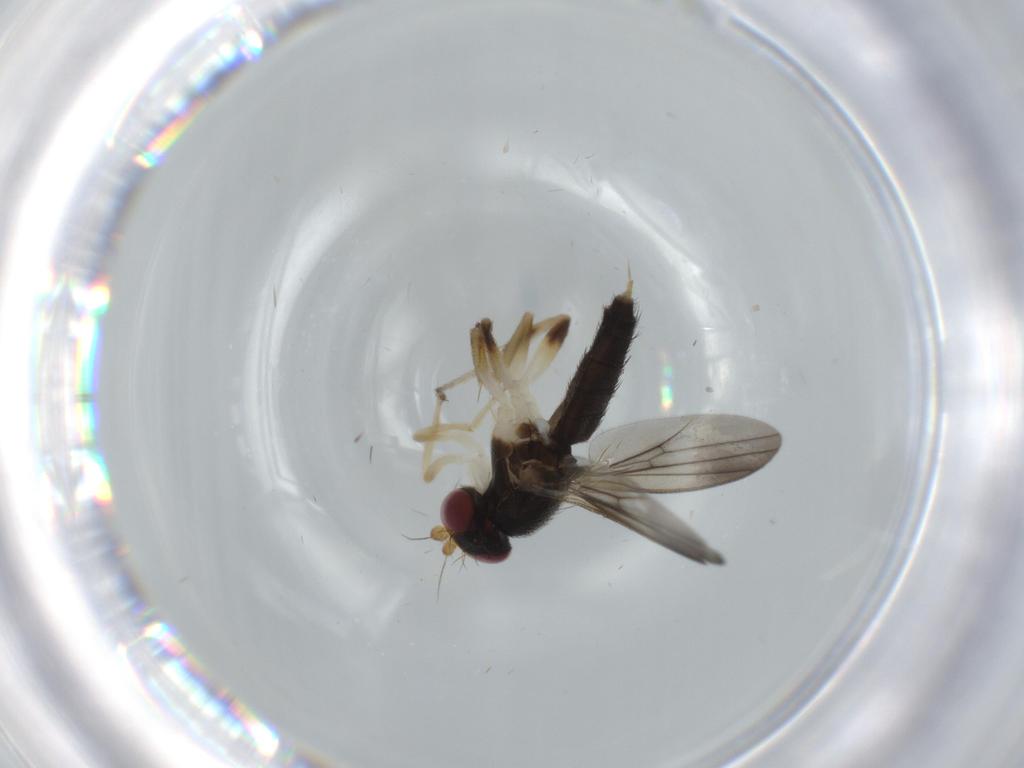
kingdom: Animalia
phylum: Arthropoda
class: Insecta
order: Diptera
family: Clusiidae
